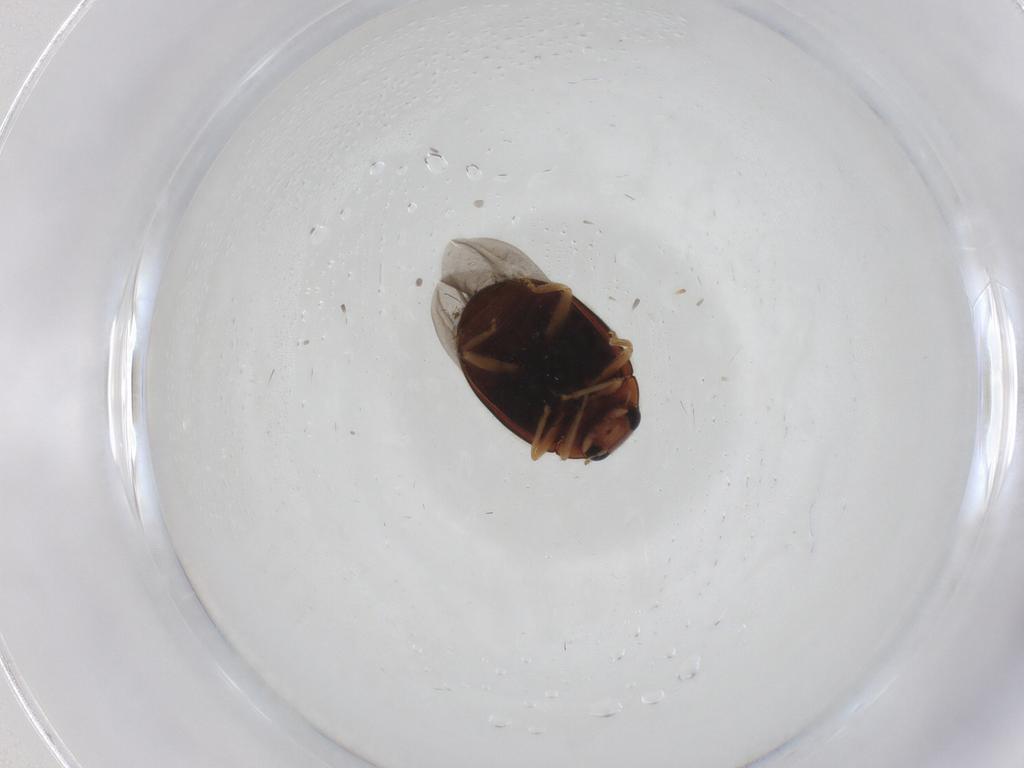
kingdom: Animalia
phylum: Arthropoda
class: Insecta
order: Coleoptera
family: Coccinellidae
